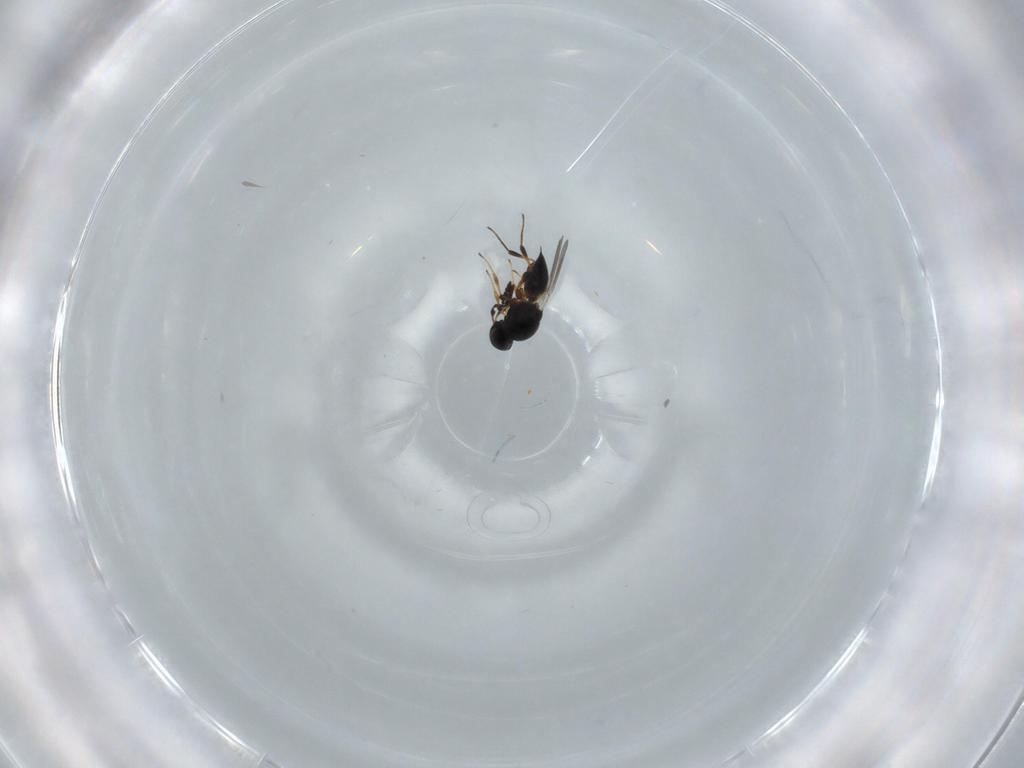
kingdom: Animalia
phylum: Arthropoda
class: Insecta
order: Hymenoptera
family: Platygastridae
